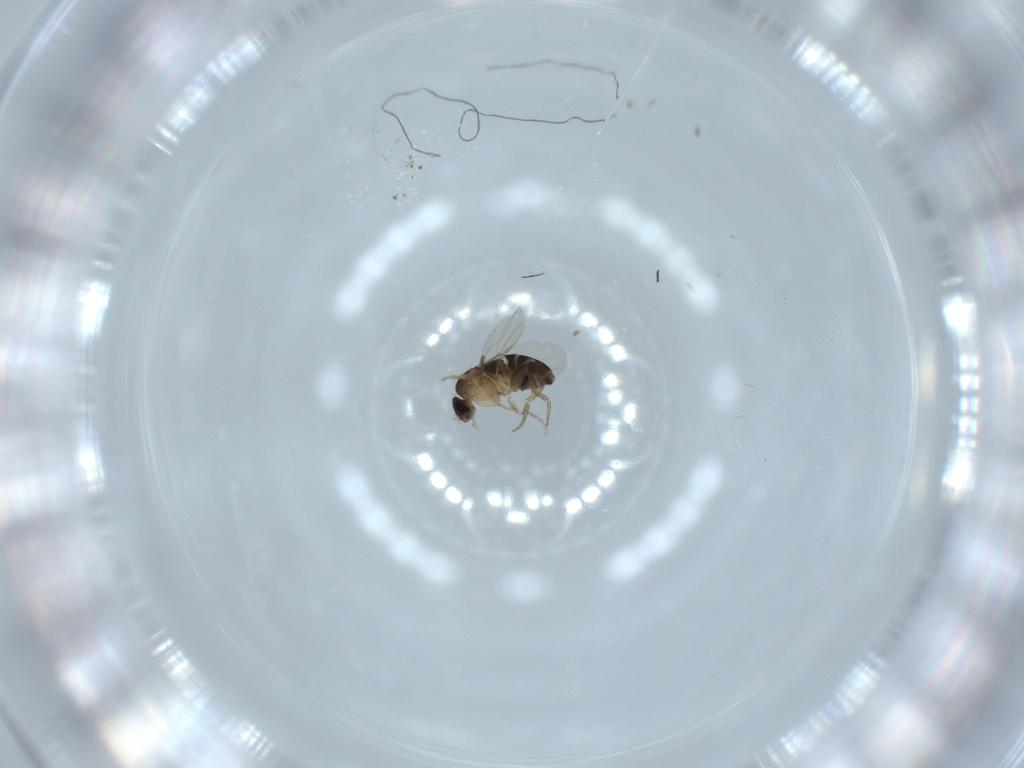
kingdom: Animalia
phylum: Arthropoda
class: Insecta
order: Diptera
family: Phoridae
